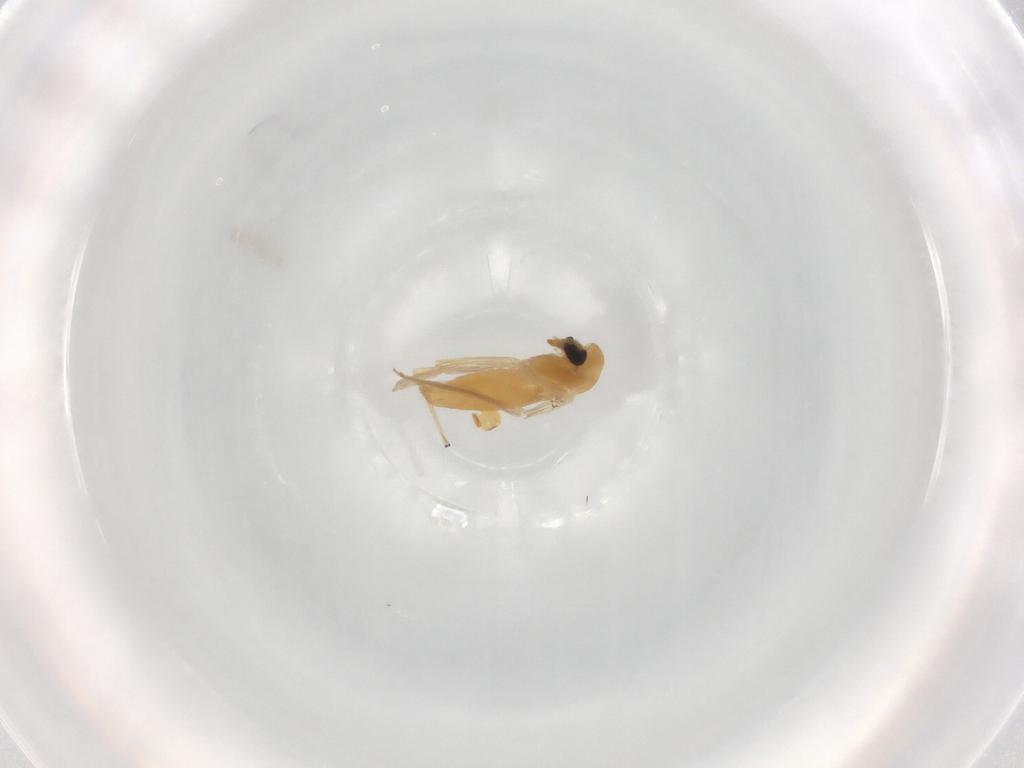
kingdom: Animalia
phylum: Arthropoda
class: Insecta
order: Diptera
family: Chironomidae
